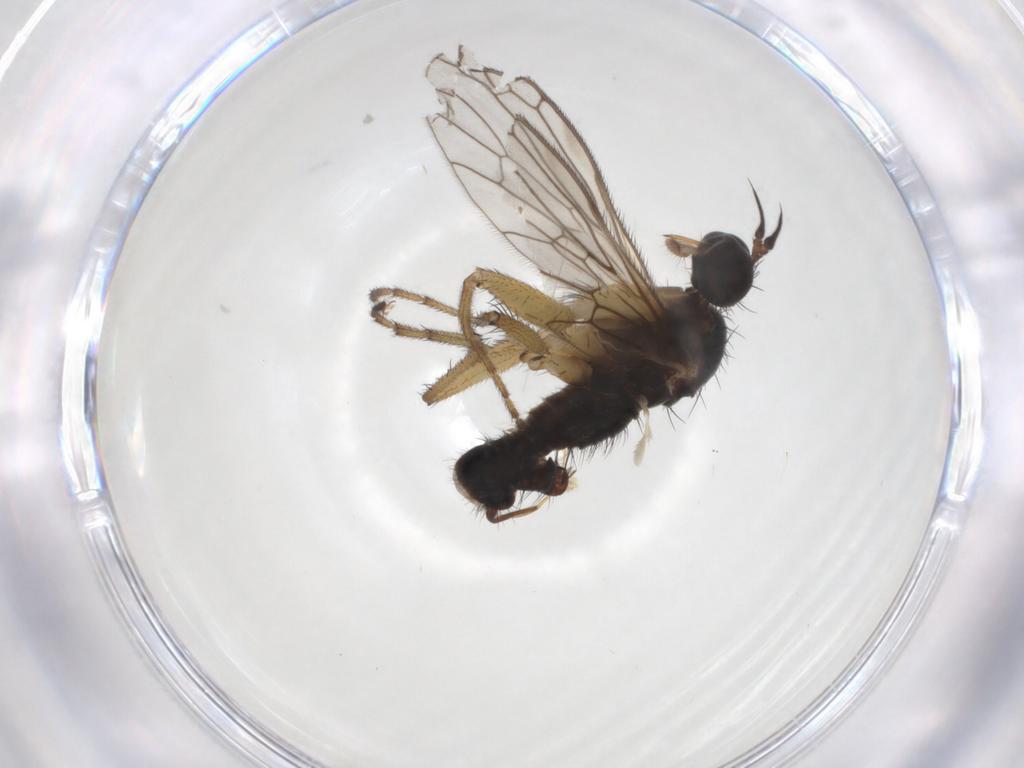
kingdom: Animalia
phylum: Arthropoda
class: Insecta
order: Diptera
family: Empididae
